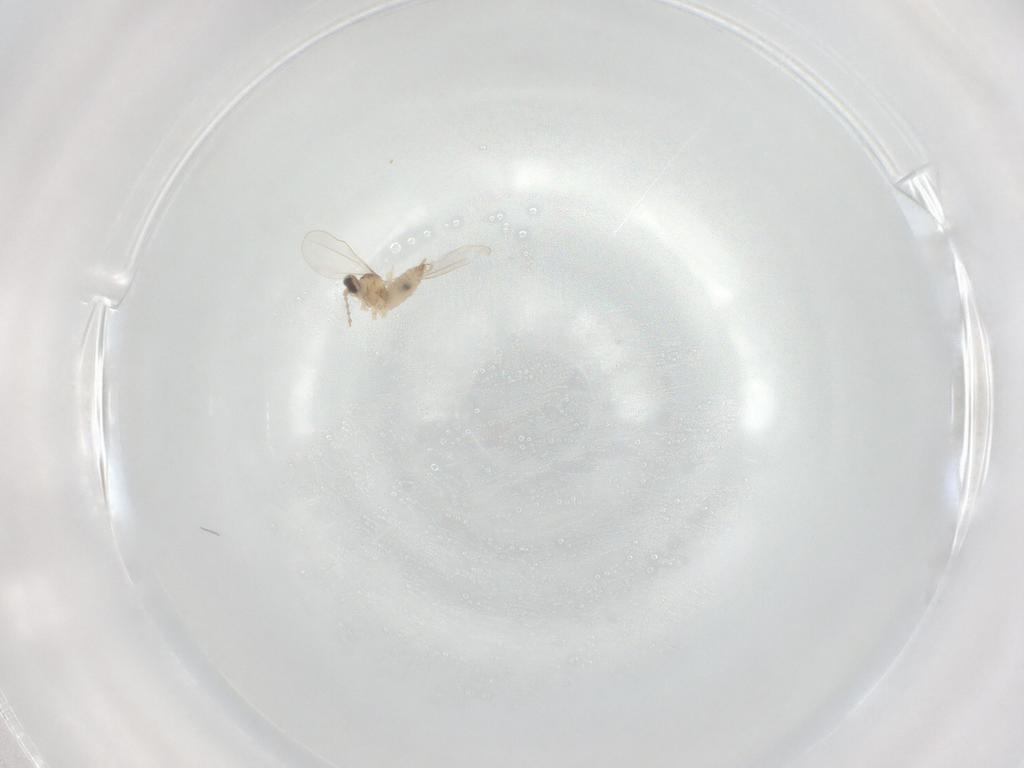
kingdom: Animalia
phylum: Arthropoda
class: Insecta
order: Diptera
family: Cecidomyiidae
